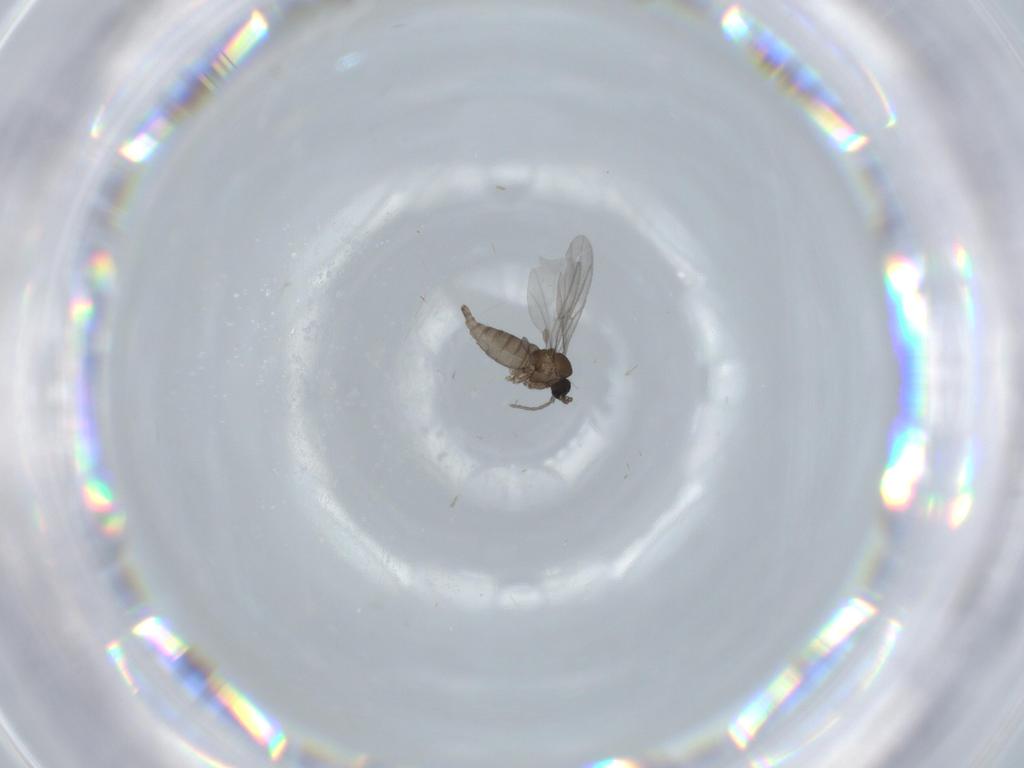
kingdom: Animalia
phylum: Arthropoda
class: Insecta
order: Diptera
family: Sciaridae
